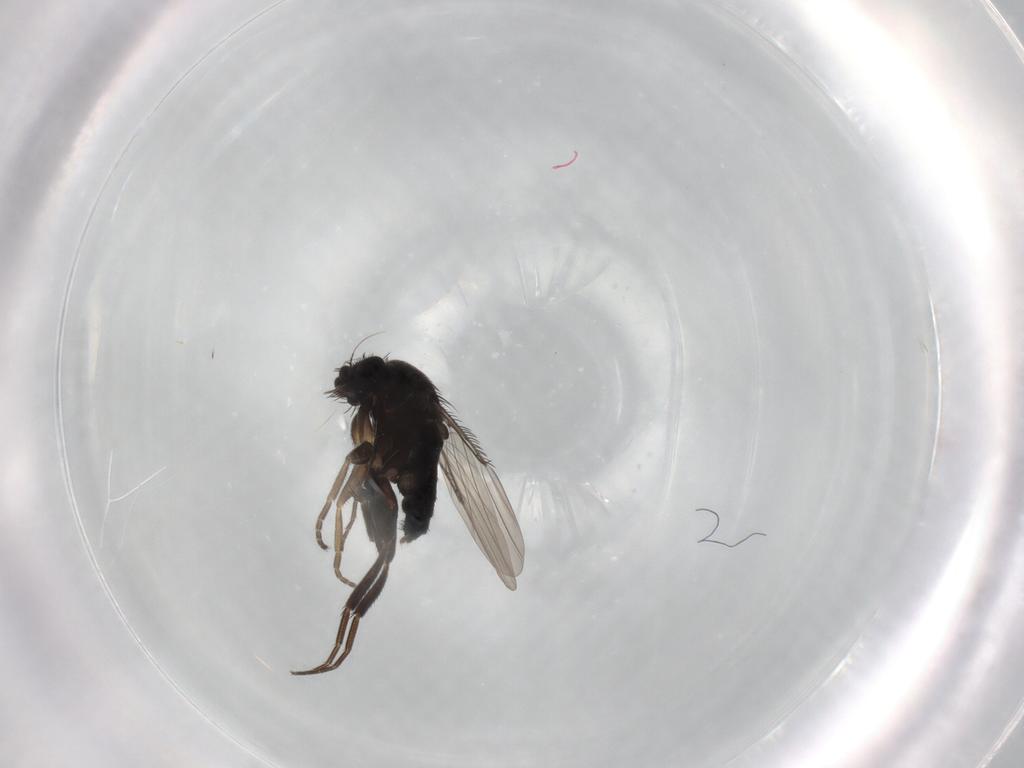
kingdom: Animalia
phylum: Arthropoda
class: Insecta
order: Diptera
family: Phoridae
